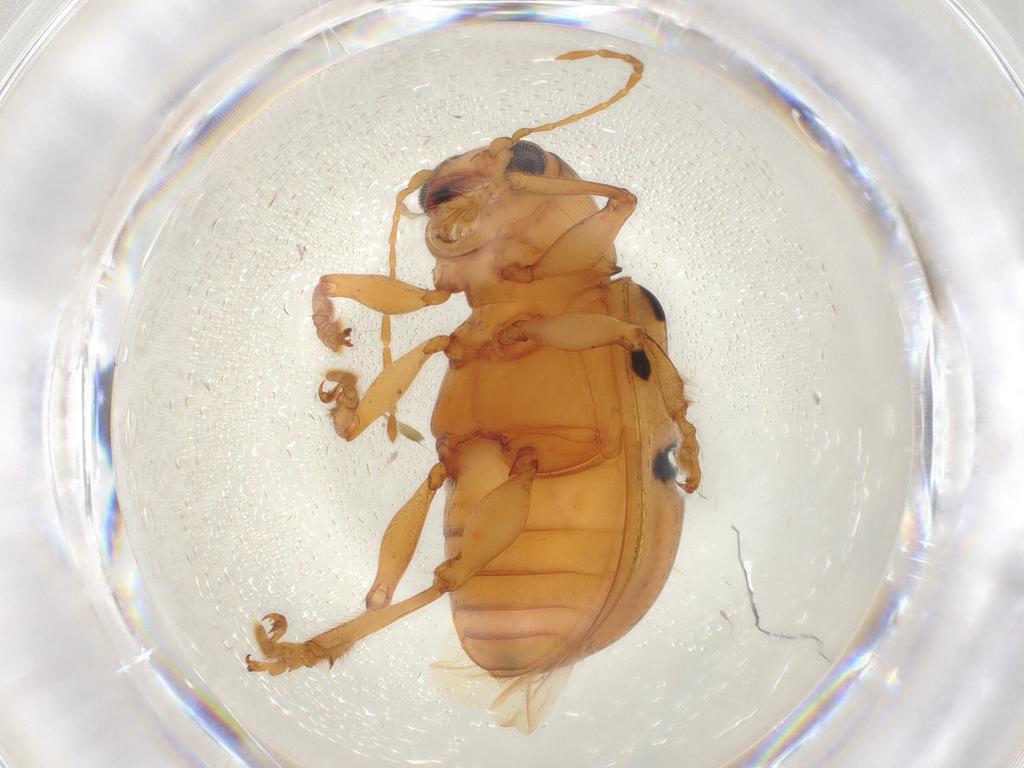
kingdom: Animalia
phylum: Arthropoda
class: Insecta
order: Coleoptera
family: Chrysomelidae
